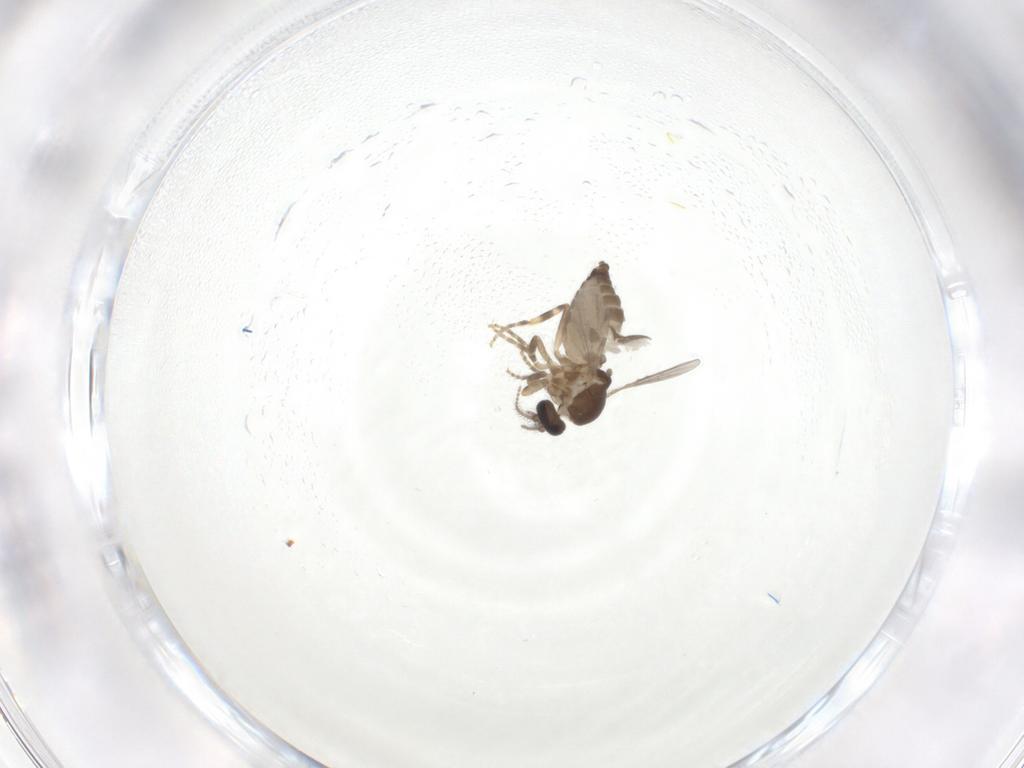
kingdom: Animalia
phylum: Arthropoda
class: Insecta
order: Diptera
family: Ceratopogonidae
